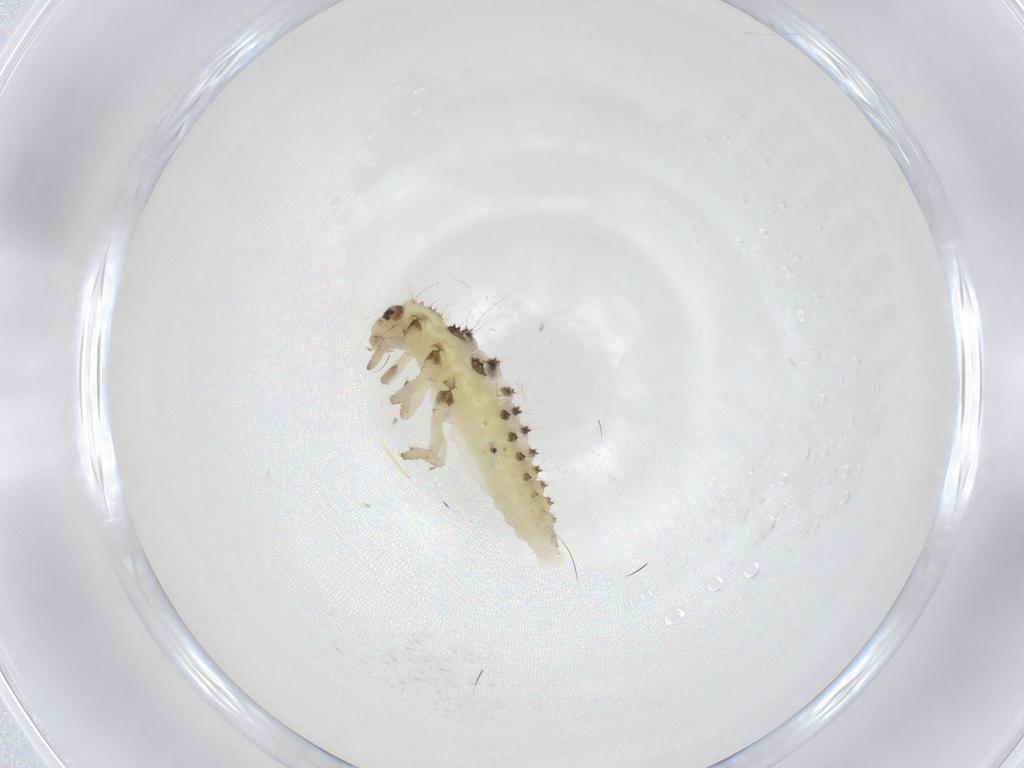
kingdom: Animalia
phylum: Arthropoda
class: Insecta
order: Coleoptera
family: Coccinellidae
